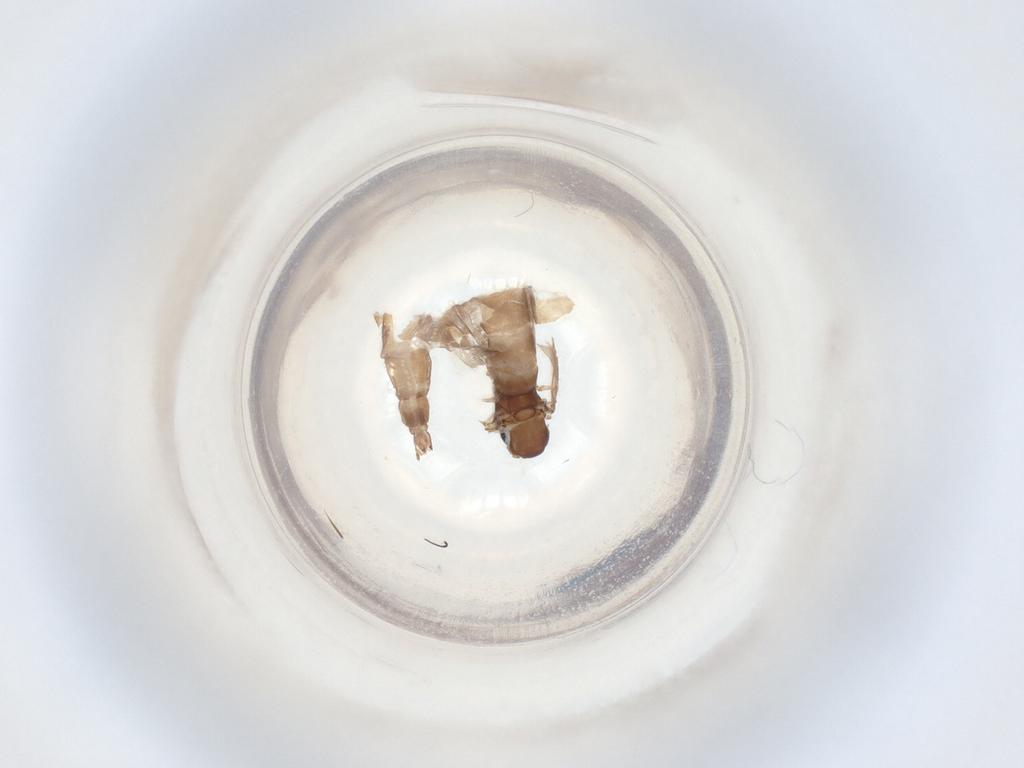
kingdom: Animalia
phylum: Arthropoda
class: Insecta
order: Diptera
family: Sciaridae
